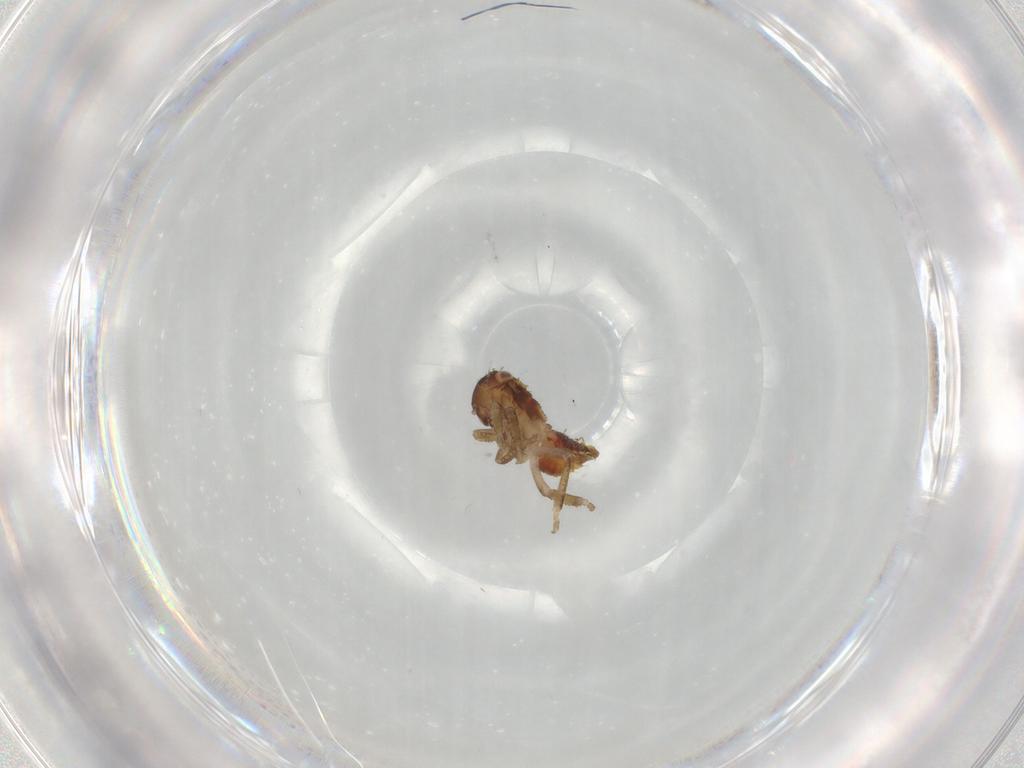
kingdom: Animalia
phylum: Arthropoda
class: Insecta
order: Hemiptera
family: Cicadellidae
